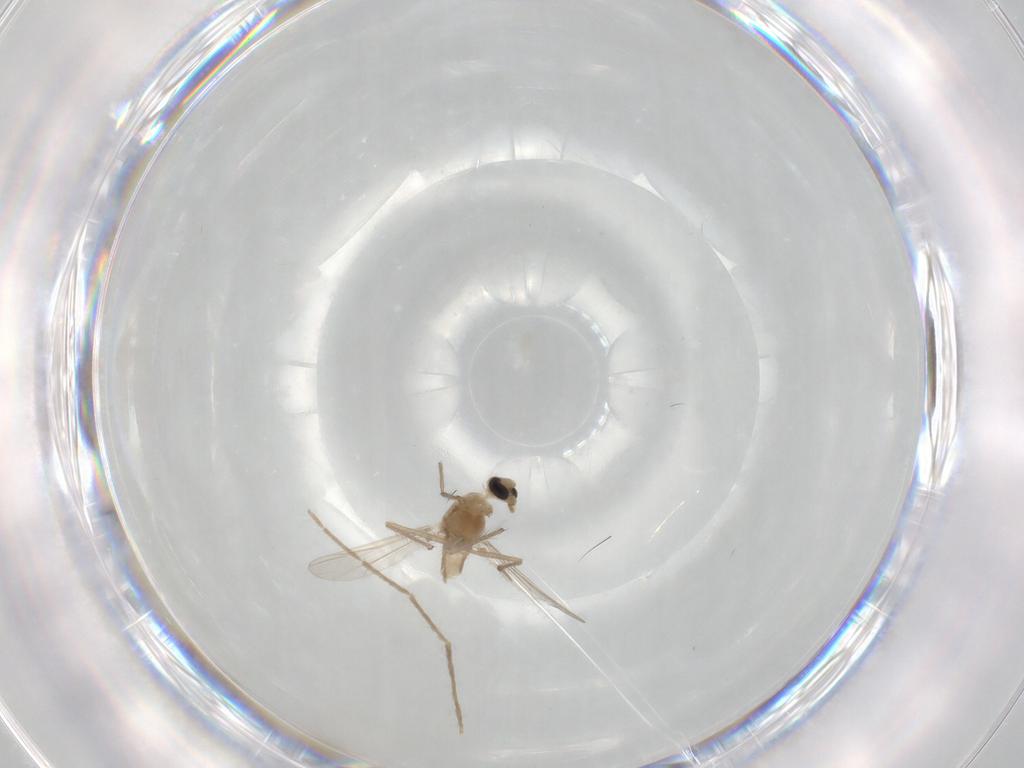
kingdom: Animalia
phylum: Arthropoda
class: Insecta
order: Diptera
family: Chironomidae
